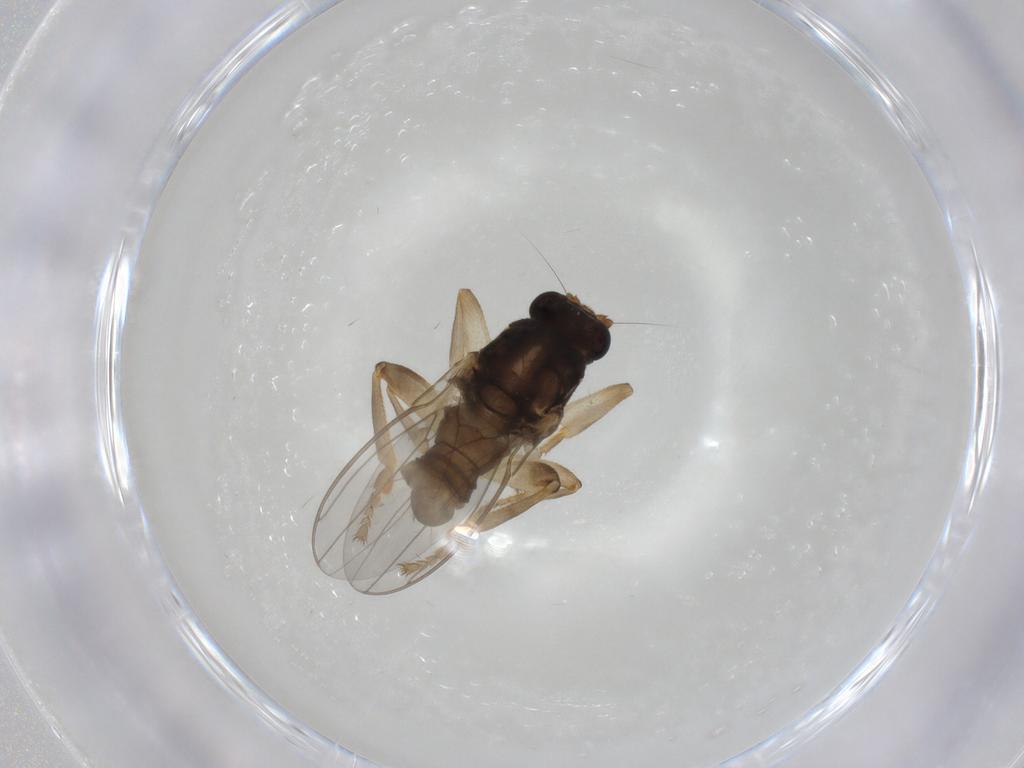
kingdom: Animalia
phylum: Arthropoda
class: Insecta
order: Diptera
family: Sphaeroceridae
